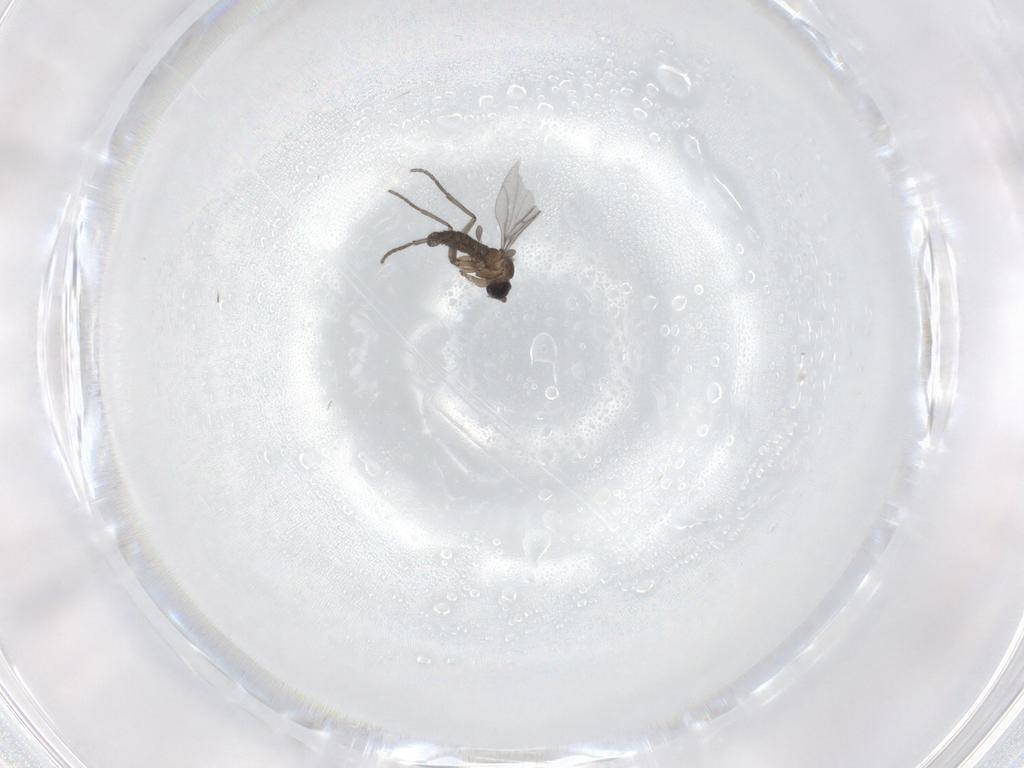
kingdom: Animalia
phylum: Arthropoda
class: Insecta
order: Diptera
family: Sciaridae
